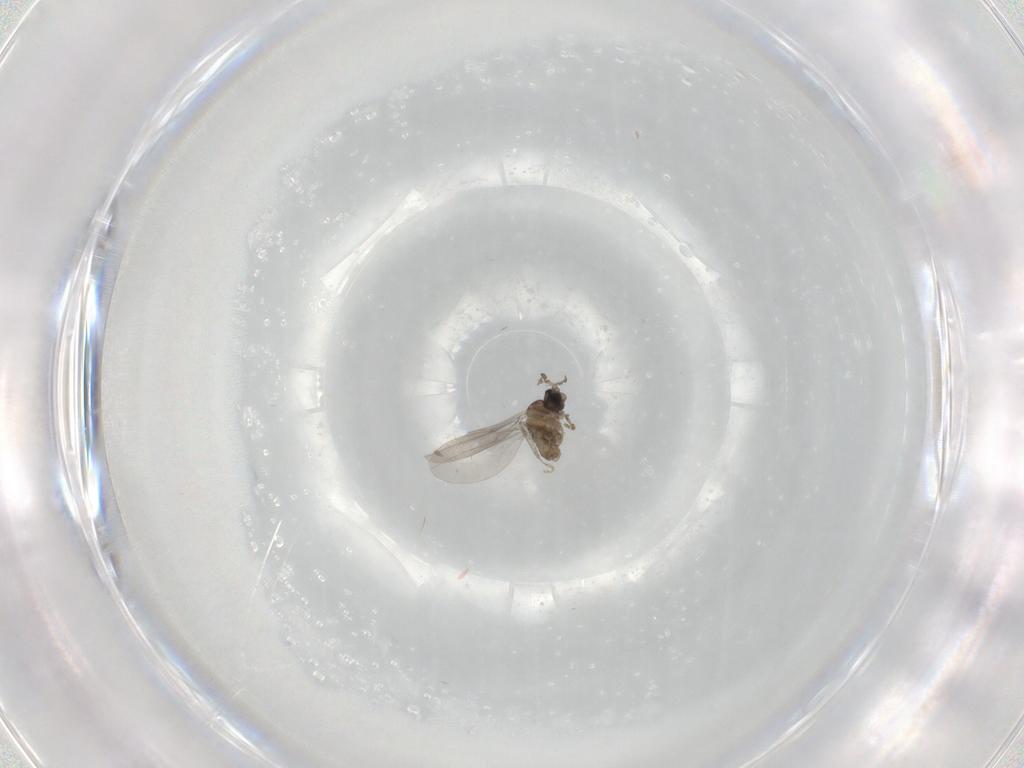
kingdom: Animalia
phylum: Arthropoda
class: Insecta
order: Diptera
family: Cecidomyiidae
